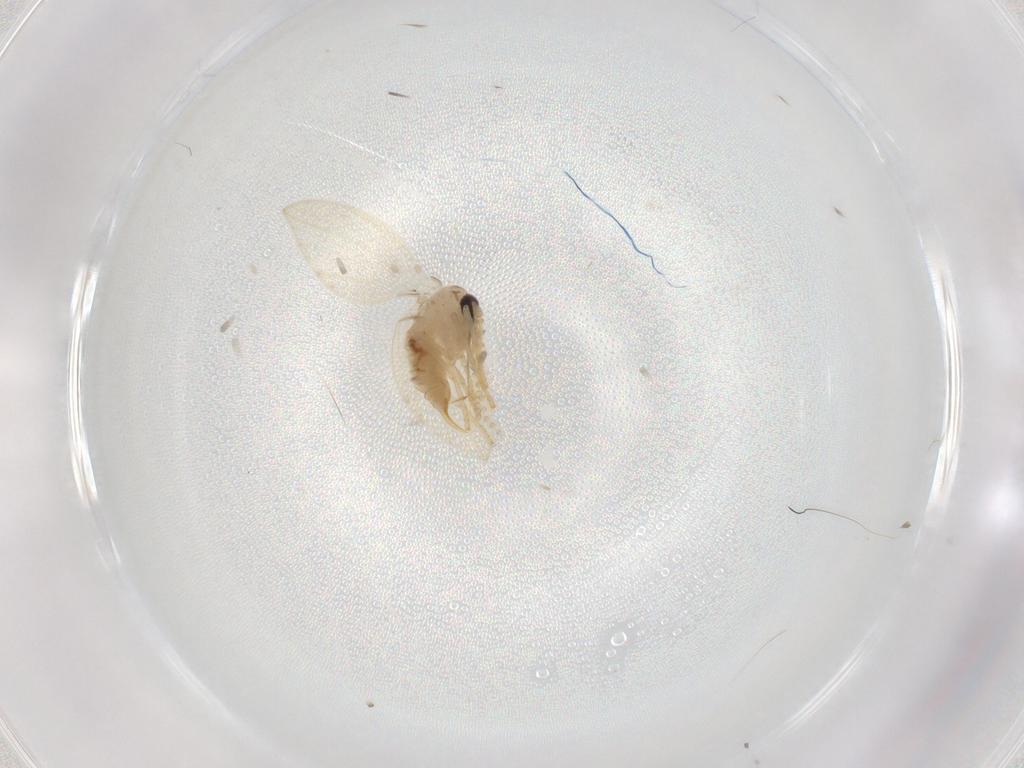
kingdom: Animalia
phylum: Arthropoda
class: Insecta
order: Diptera
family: Psychodidae
